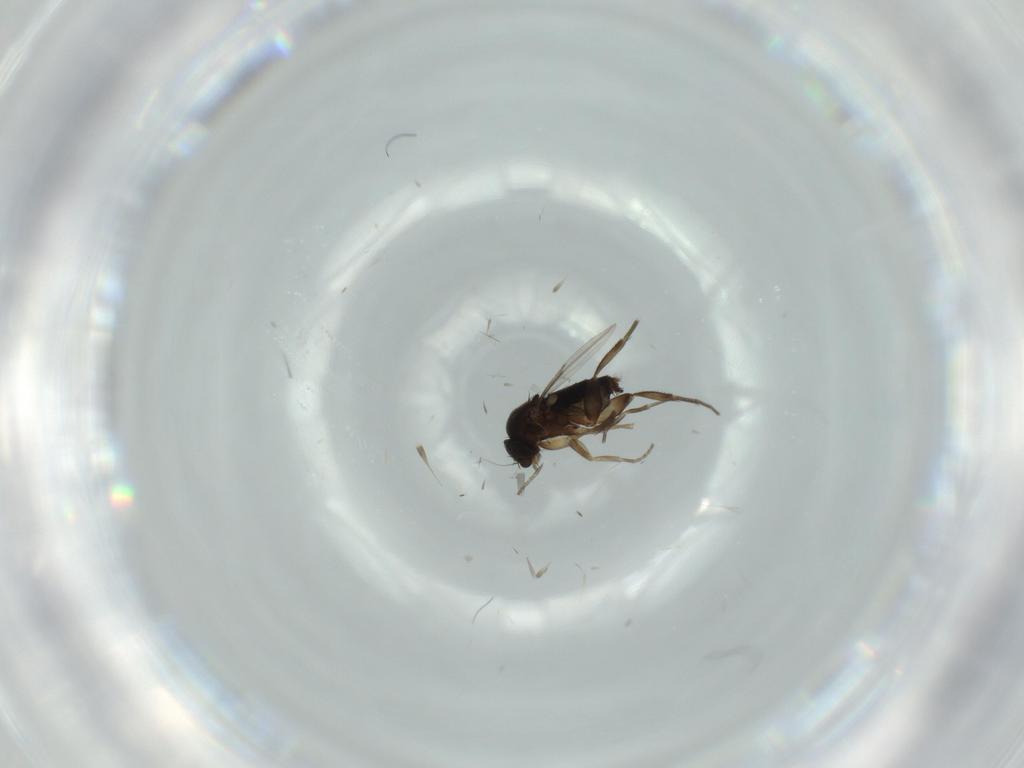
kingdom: Animalia
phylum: Arthropoda
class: Insecta
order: Diptera
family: Phoridae
